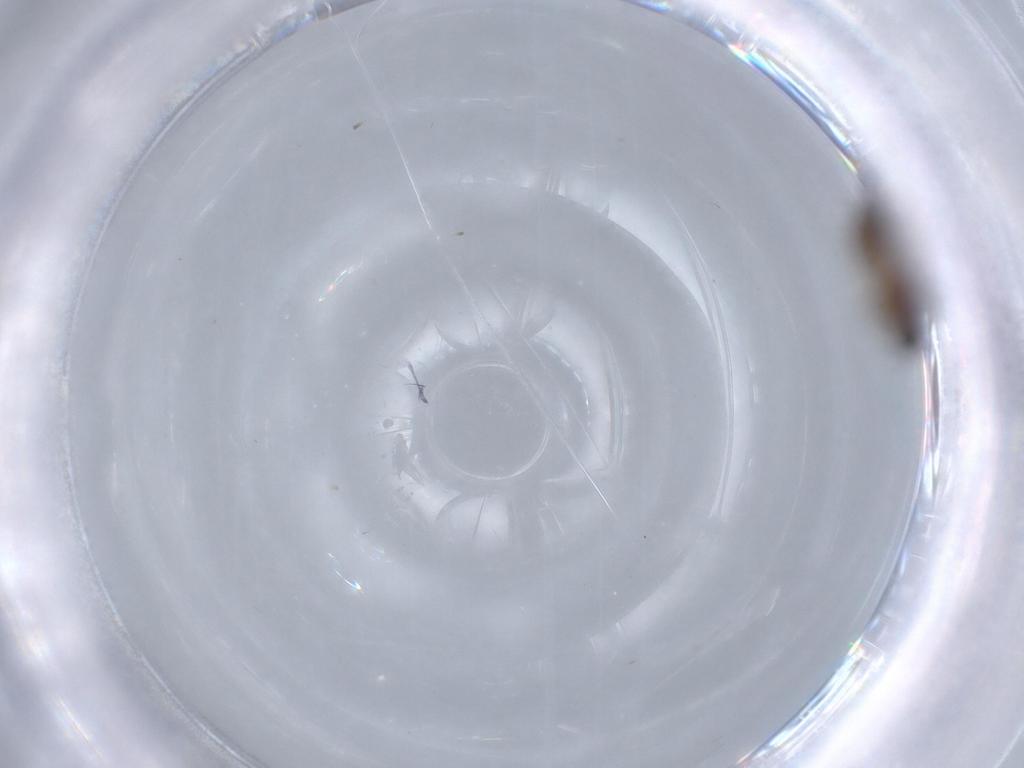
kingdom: Animalia
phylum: Arthropoda
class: Insecta
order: Diptera
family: Cecidomyiidae
